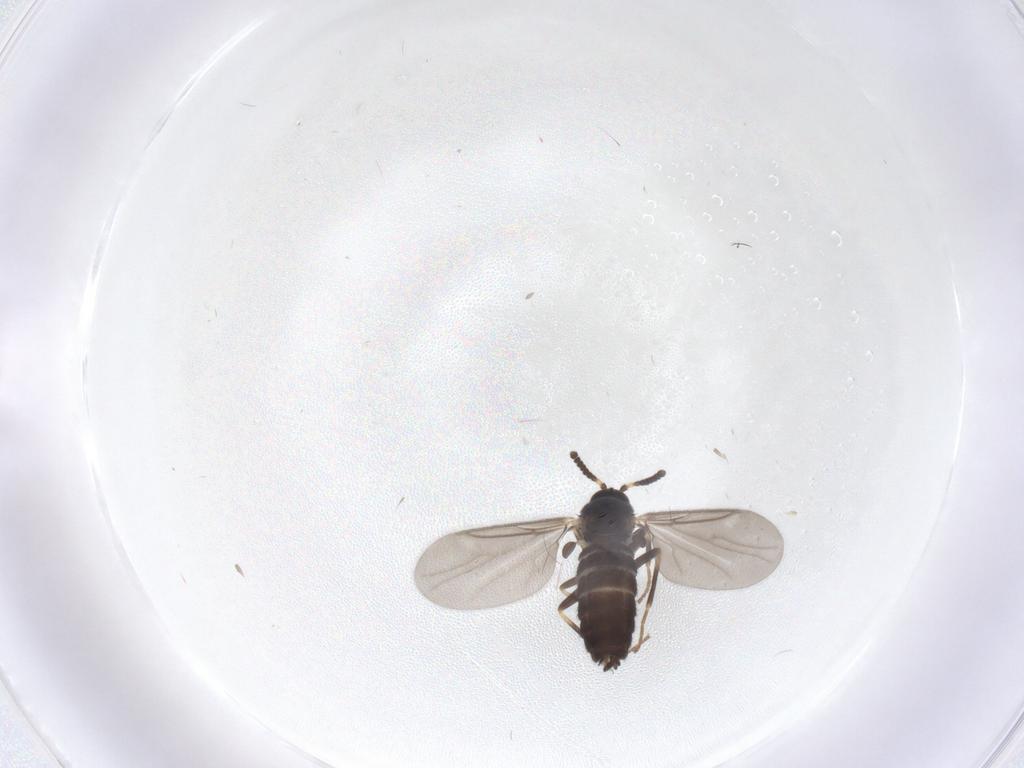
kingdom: Animalia
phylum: Arthropoda
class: Insecta
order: Diptera
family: Scatopsidae
